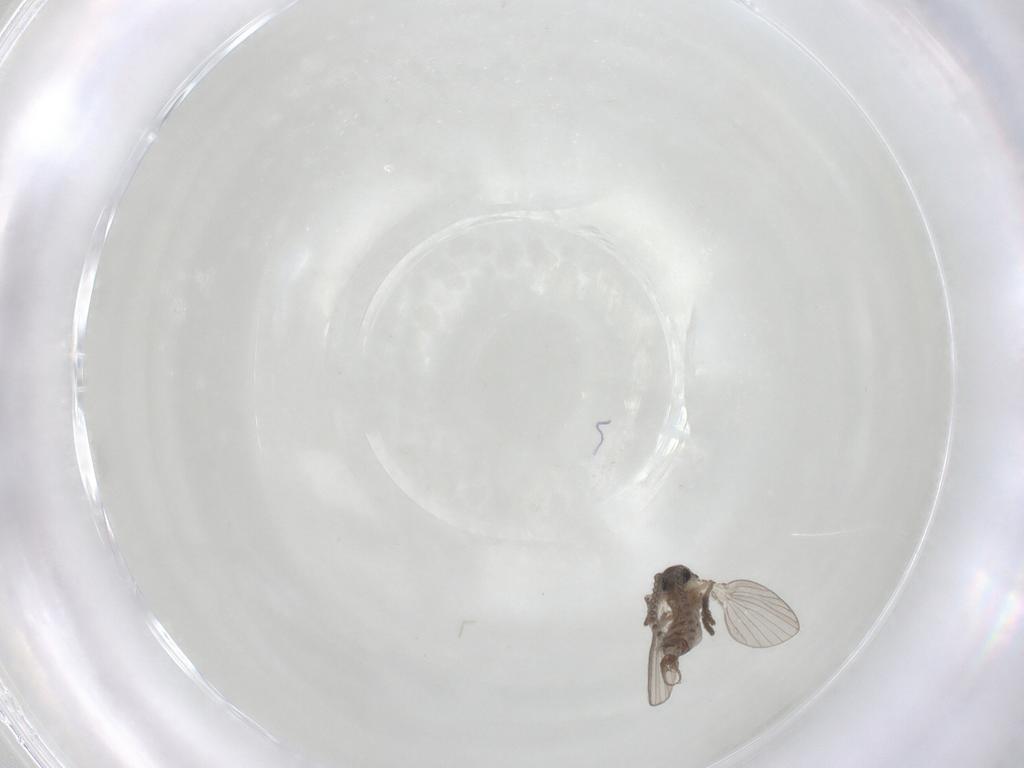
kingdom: Animalia
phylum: Arthropoda
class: Insecta
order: Diptera
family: Psychodidae
